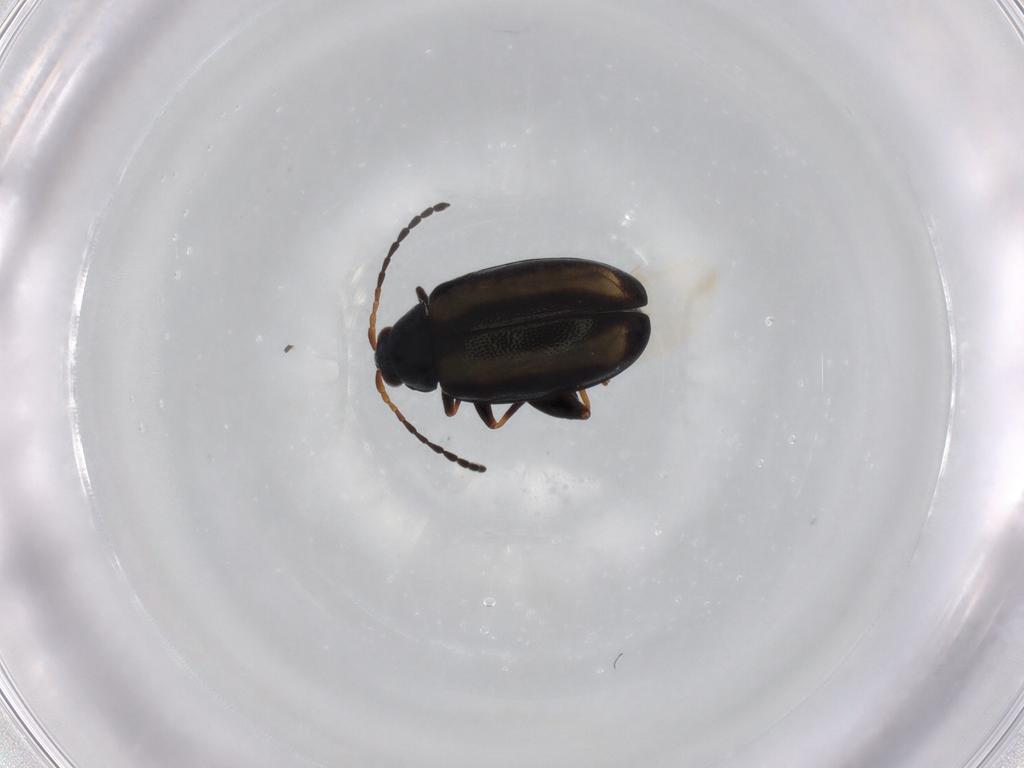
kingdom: Animalia
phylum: Arthropoda
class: Insecta
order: Coleoptera
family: Chrysomelidae
